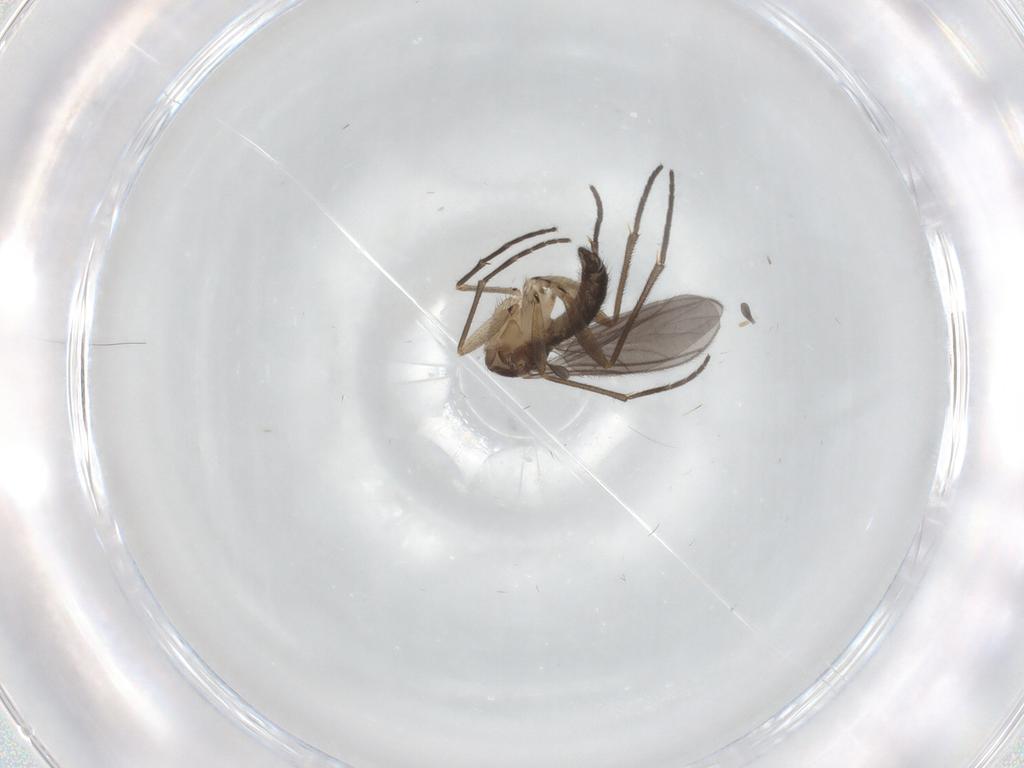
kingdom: Animalia
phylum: Arthropoda
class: Insecta
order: Diptera
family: Sciaridae
